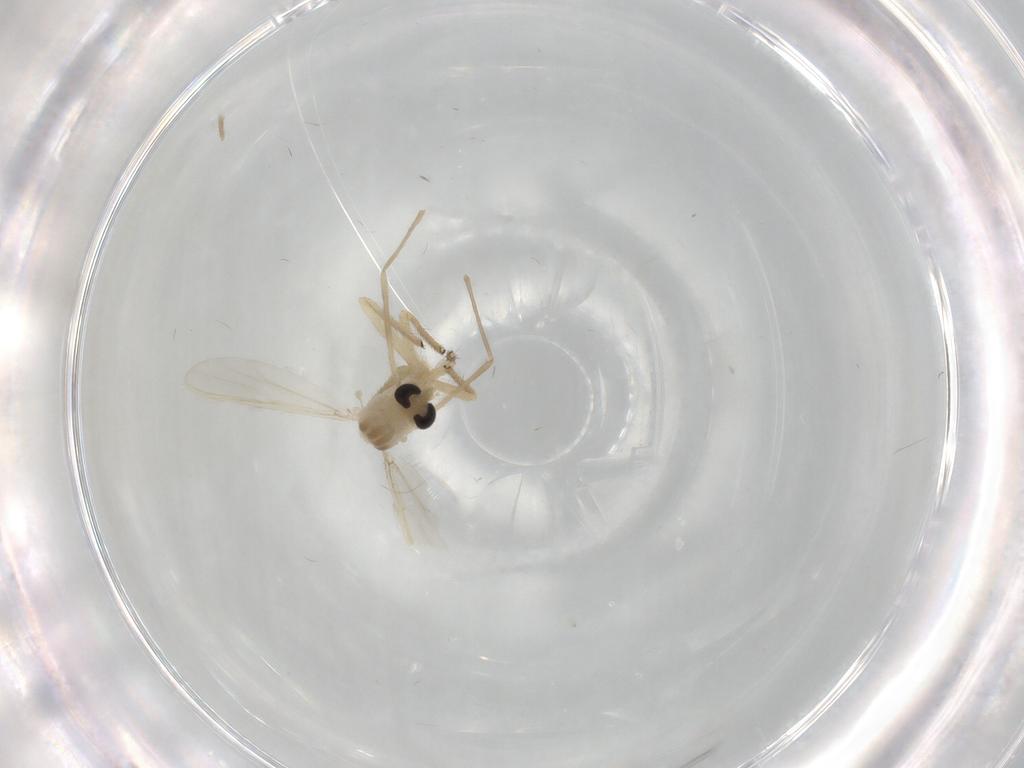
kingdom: Animalia
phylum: Arthropoda
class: Insecta
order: Diptera
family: Chironomidae
